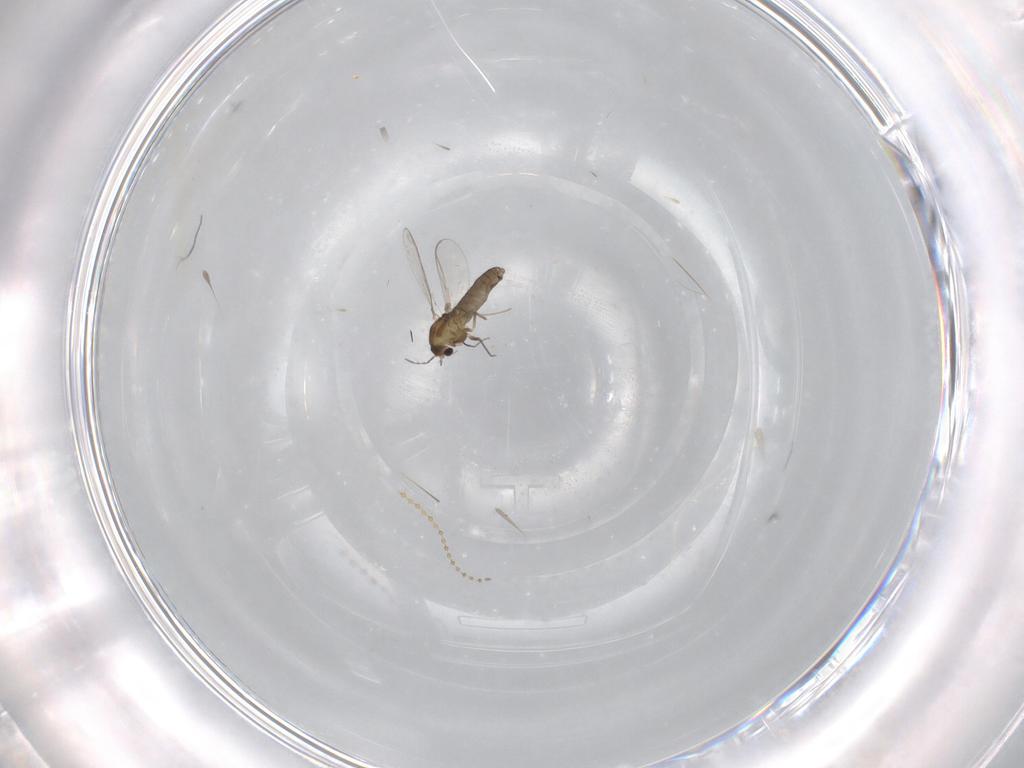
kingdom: Animalia
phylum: Arthropoda
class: Insecta
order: Diptera
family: Chironomidae
